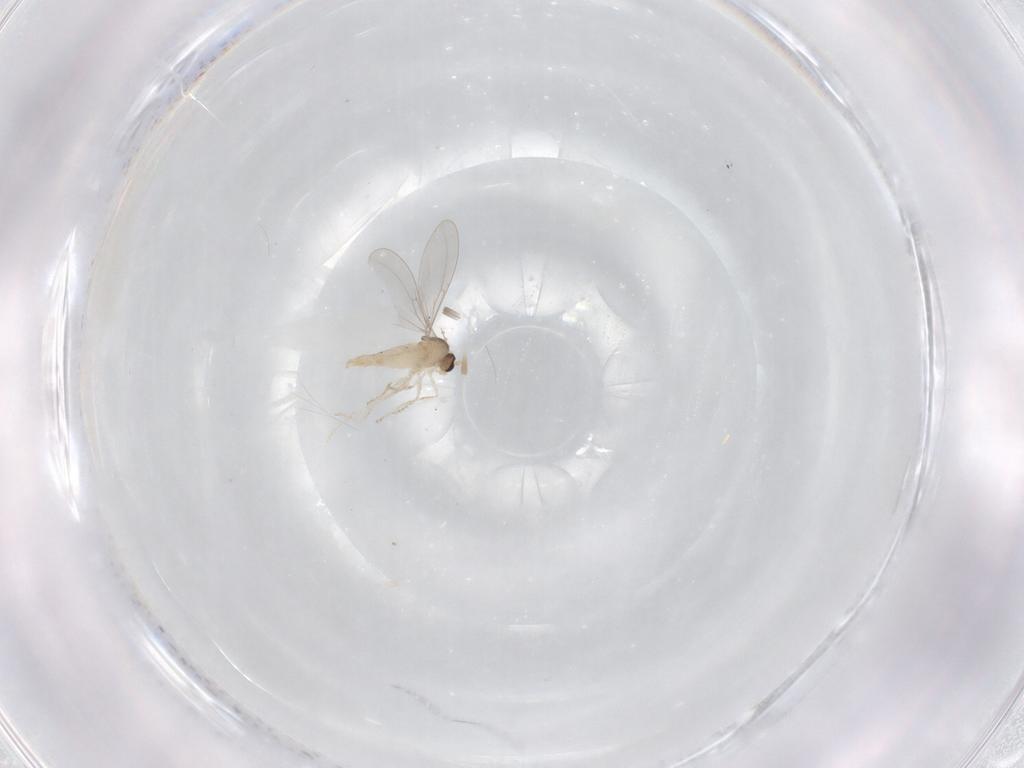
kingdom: Animalia
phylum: Arthropoda
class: Insecta
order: Diptera
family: Cecidomyiidae
